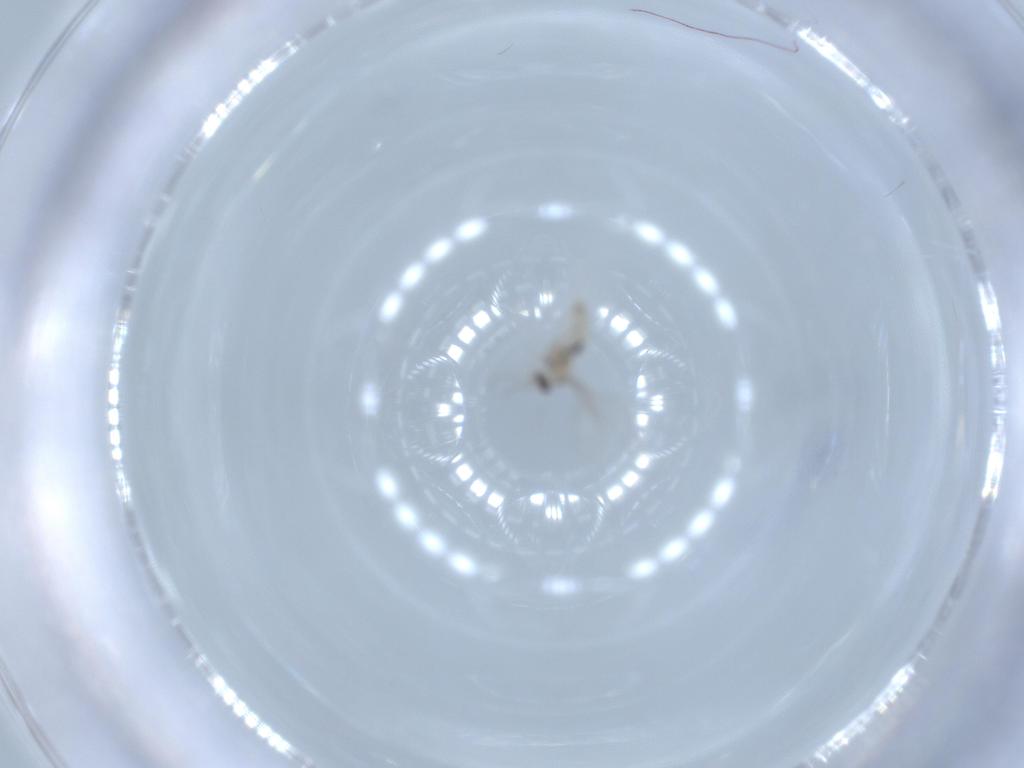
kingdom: Animalia
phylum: Arthropoda
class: Insecta
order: Diptera
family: Cecidomyiidae
